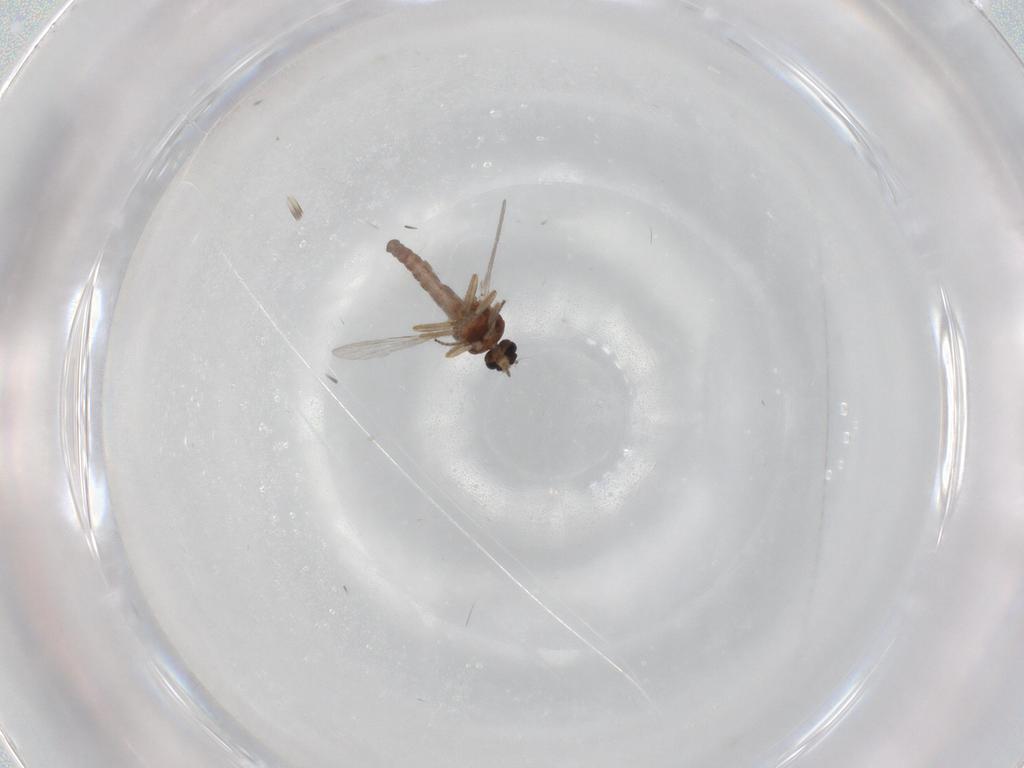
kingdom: Animalia
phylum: Arthropoda
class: Insecta
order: Diptera
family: Ceratopogonidae
